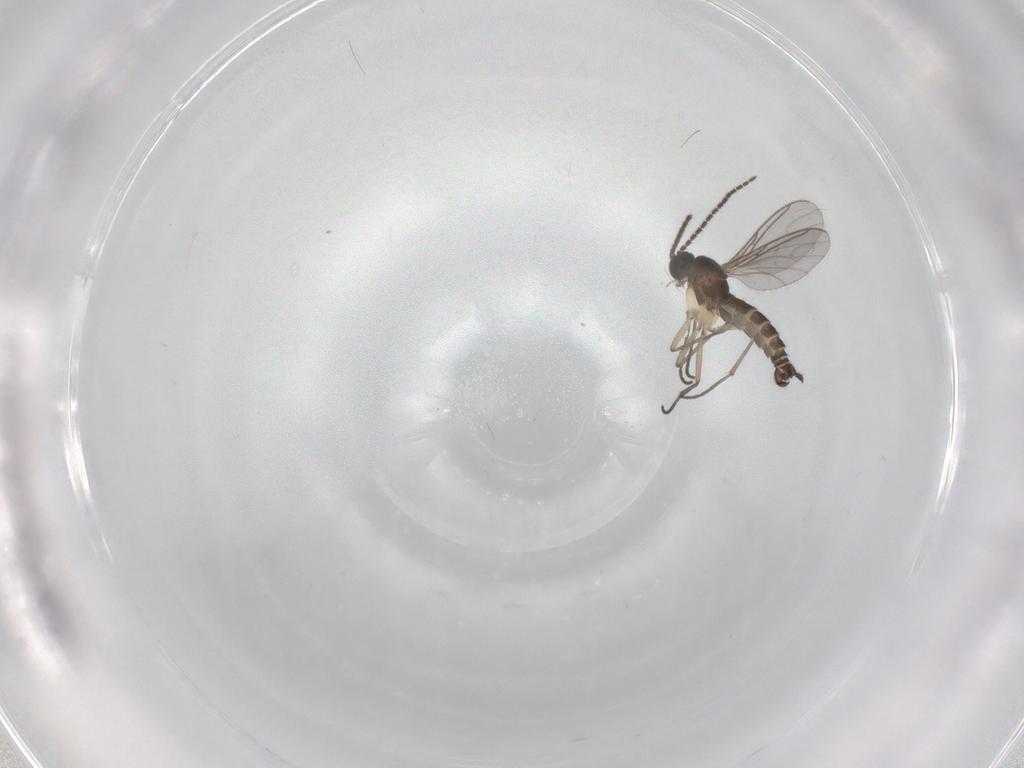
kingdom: Animalia
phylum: Arthropoda
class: Insecta
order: Diptera
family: Sciaridae
